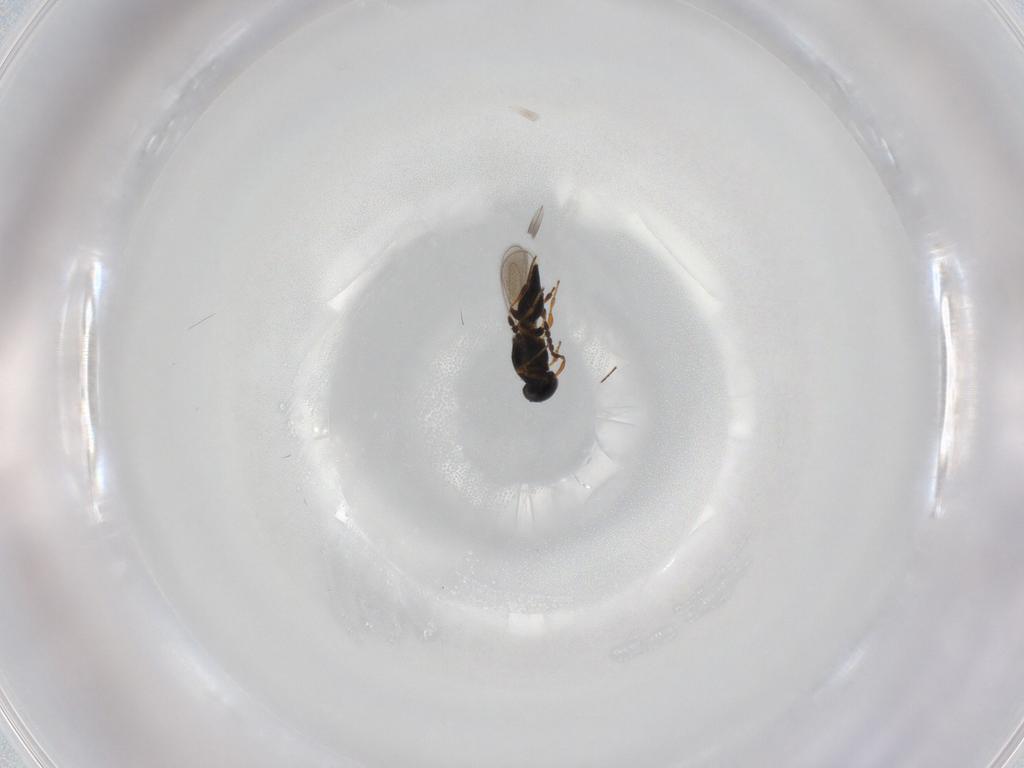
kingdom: Animalia
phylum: Arthropoda
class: Insecta
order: Hymenoptera
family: Platygastridae
